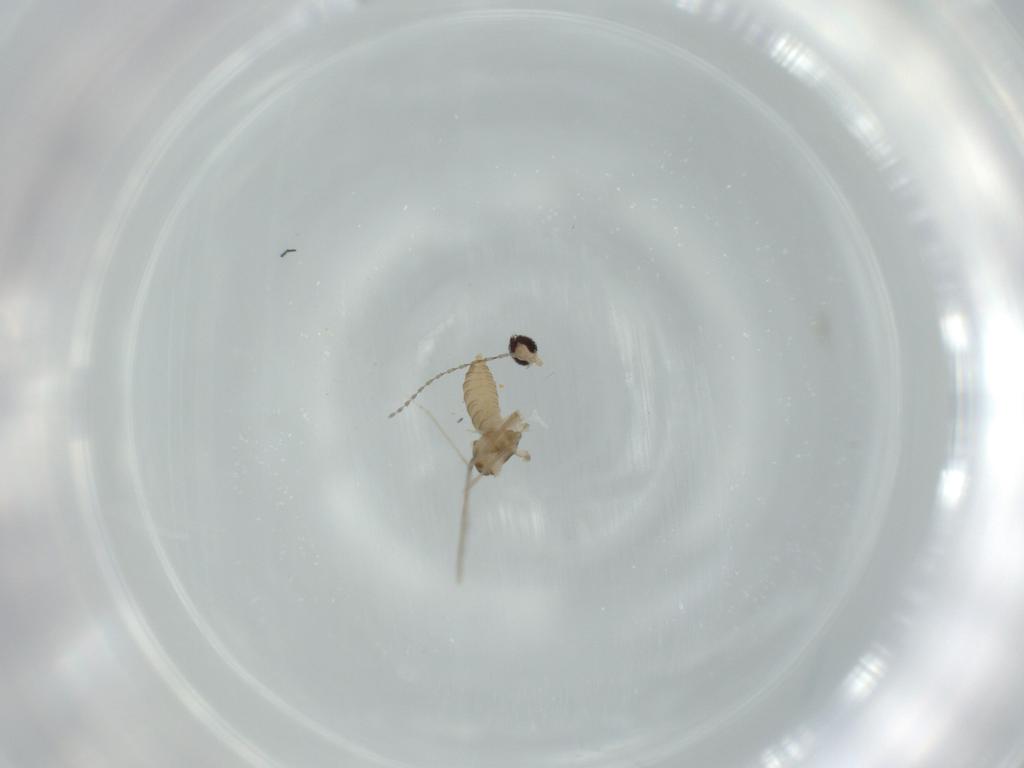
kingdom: Animalia
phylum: Arthropoda
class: Insecta
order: Diptera
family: Cecidomyiidae
